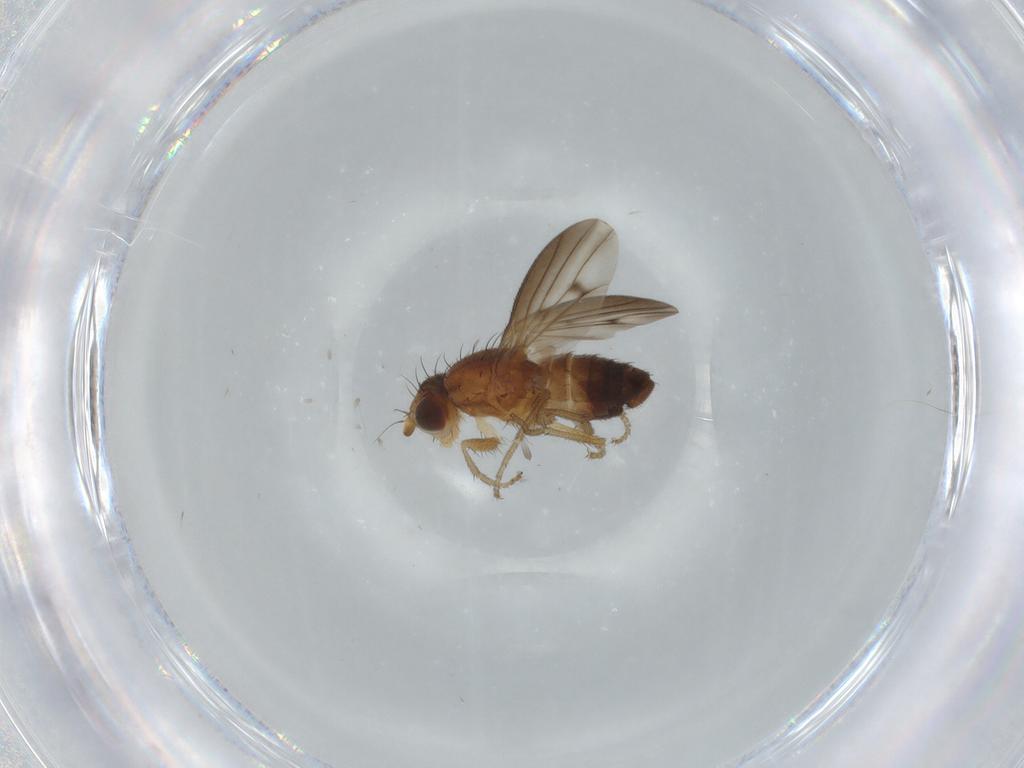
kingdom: Animalia
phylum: Arthropoda
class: Insecta
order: Diptera
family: Heleomyzidae
